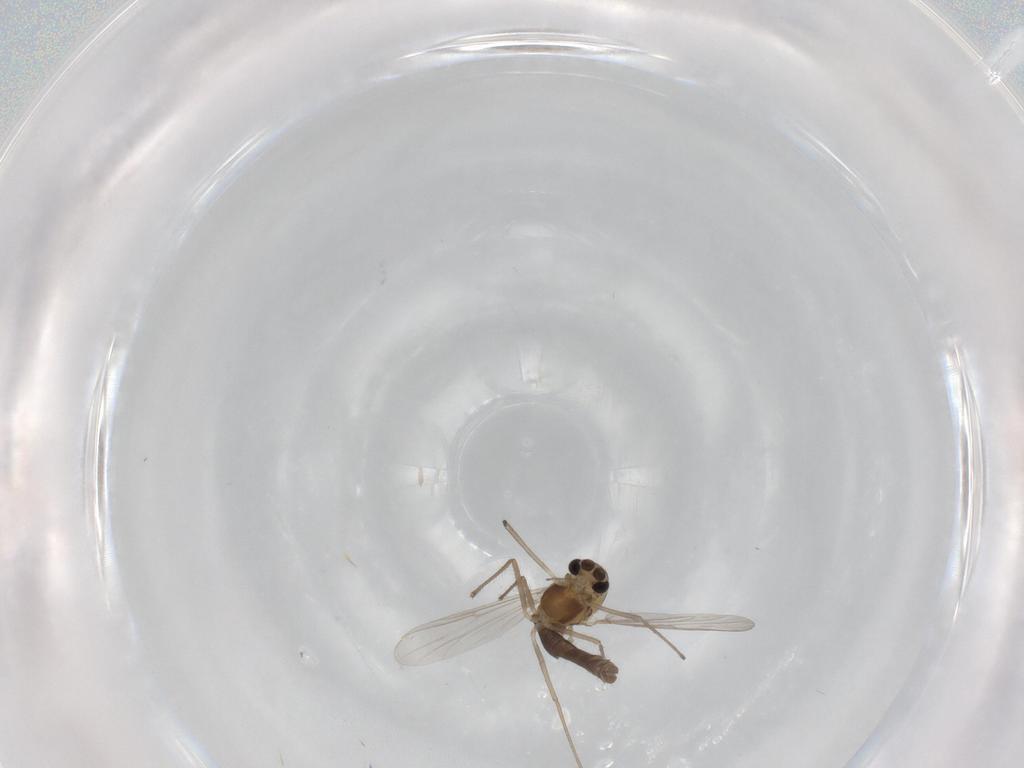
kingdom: Animalia
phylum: Arthropoda
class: Insecta
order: Diptera
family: Chironomidae
